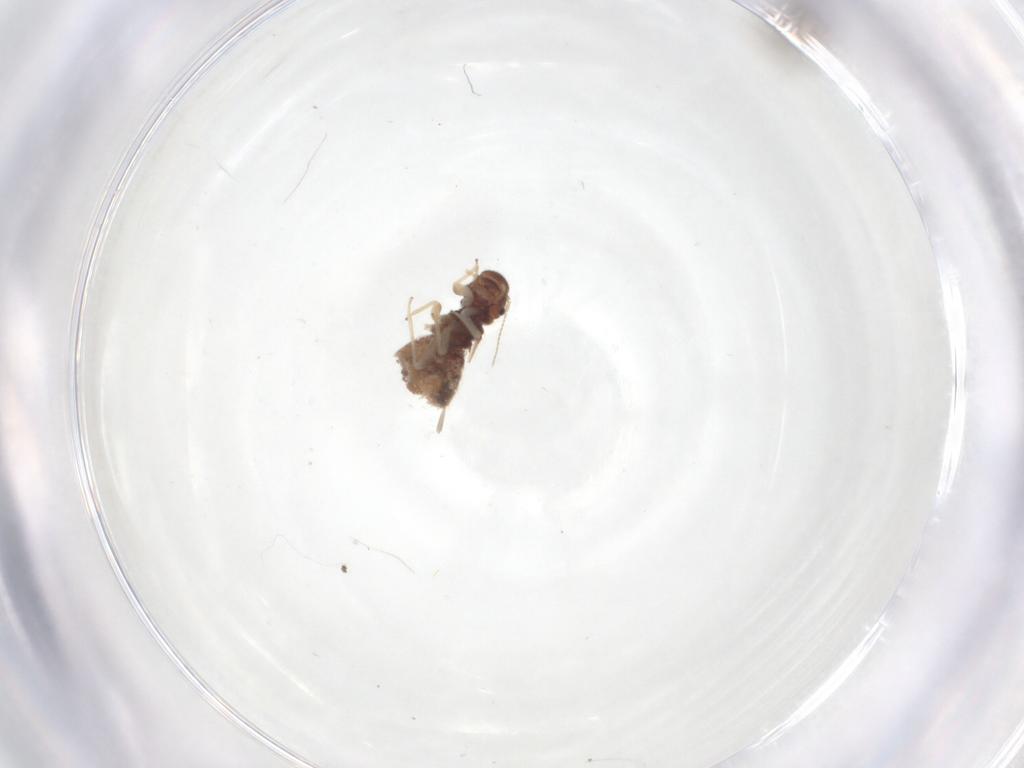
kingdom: Animalia
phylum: Arthropoda
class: Insecta
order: Psocodea
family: Archipsocidae
